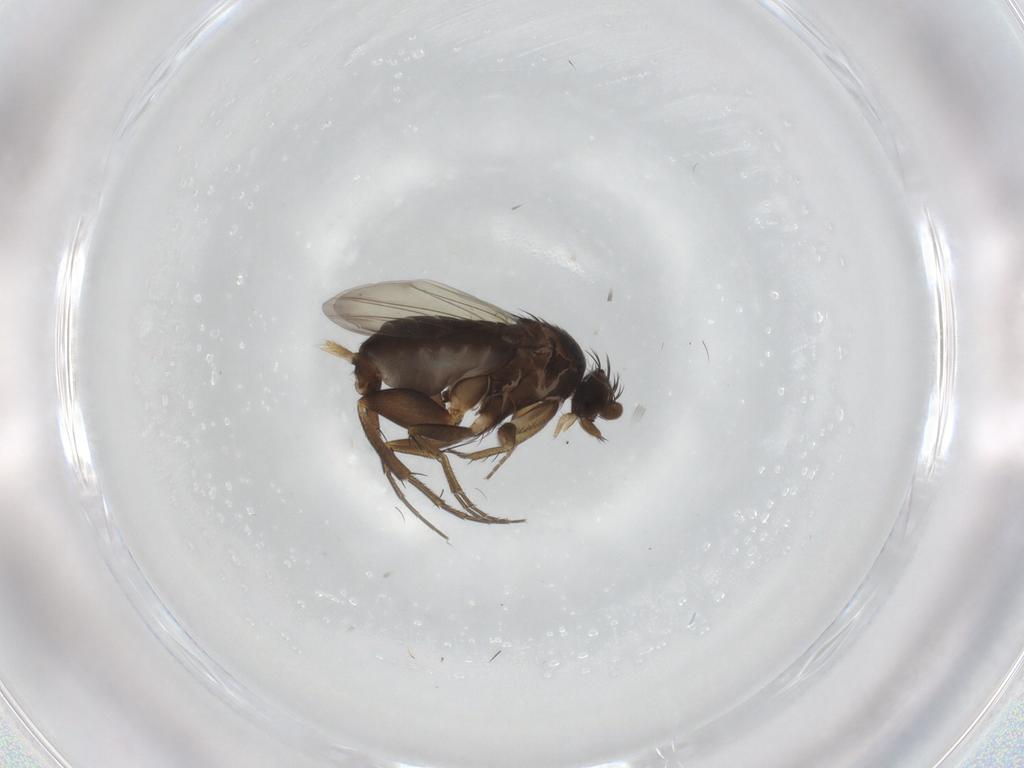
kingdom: Animalia
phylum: Arthropoda
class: Insecta
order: Diptera
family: Phoridae
